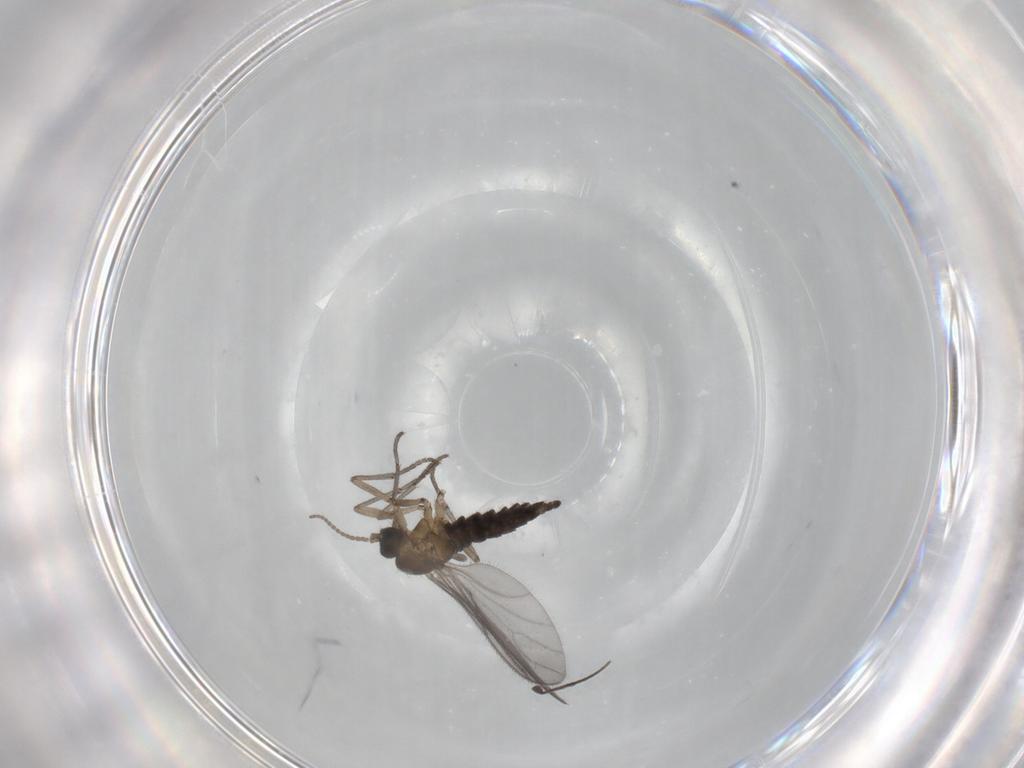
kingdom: Animalia
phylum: Arthropoda
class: Insecta
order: Diptera
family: Sciaridae
